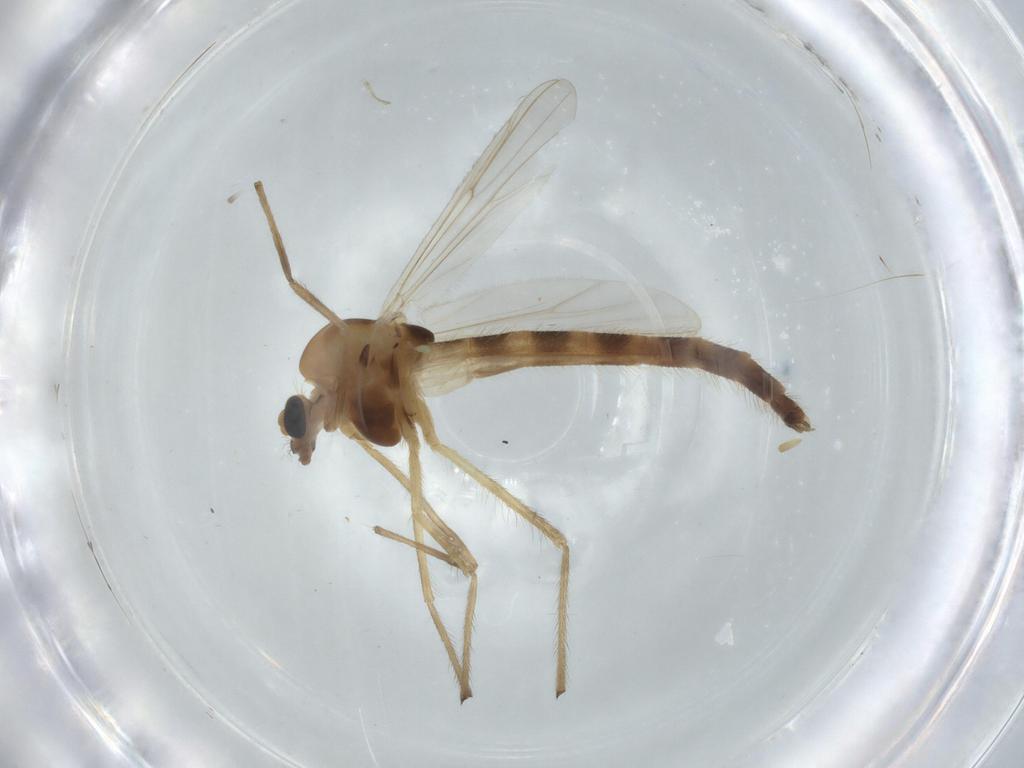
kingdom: Animalia
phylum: Arthropoda
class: Insecta
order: Diptera
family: Chironomidae
